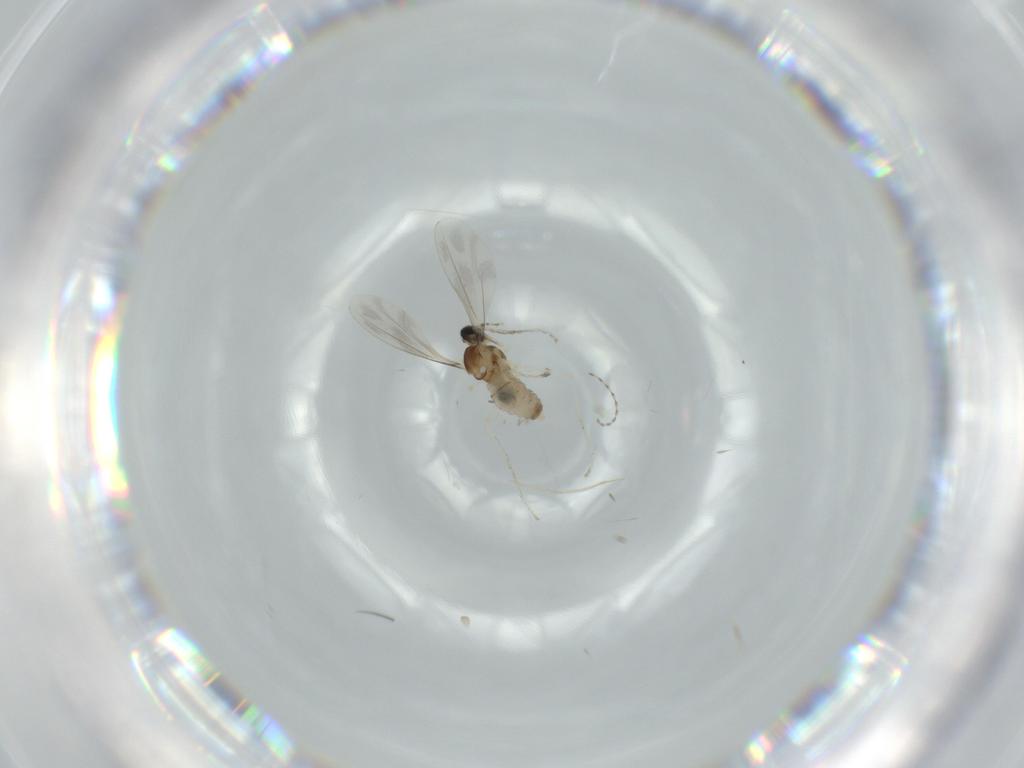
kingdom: Animalia
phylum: Arthropoda
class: Insecta
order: Diptera
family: Cecidomyiidae
